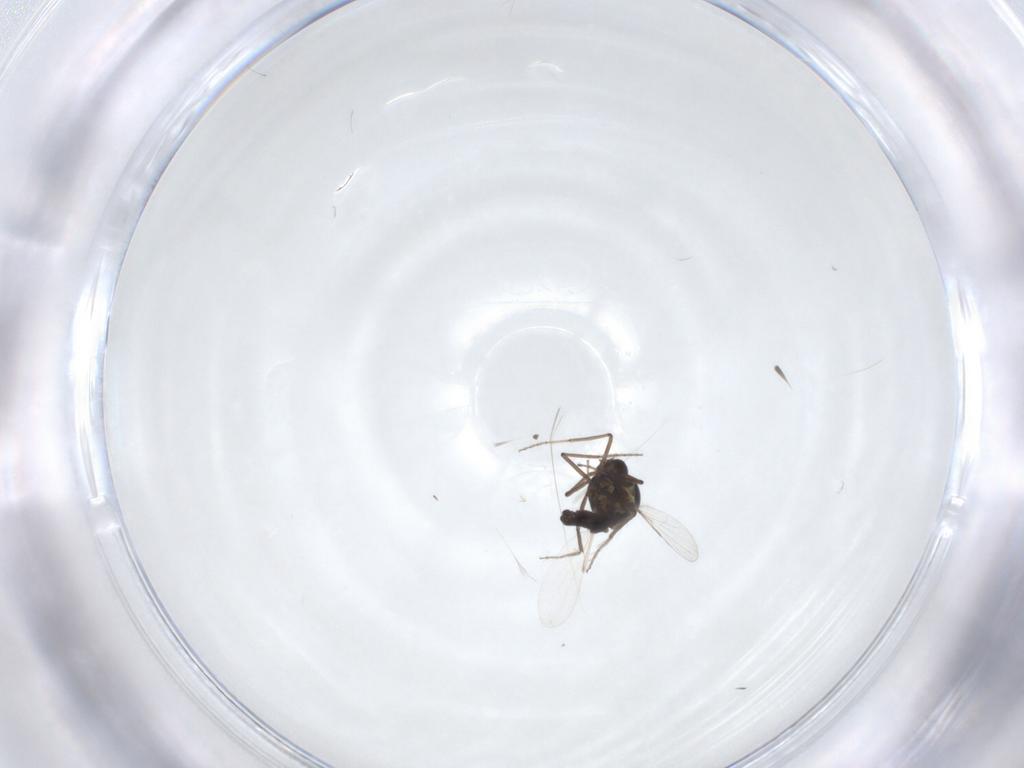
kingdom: Animalia
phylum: Arthropoda
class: Insecta
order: Diptera
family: Ceratopogonidae
